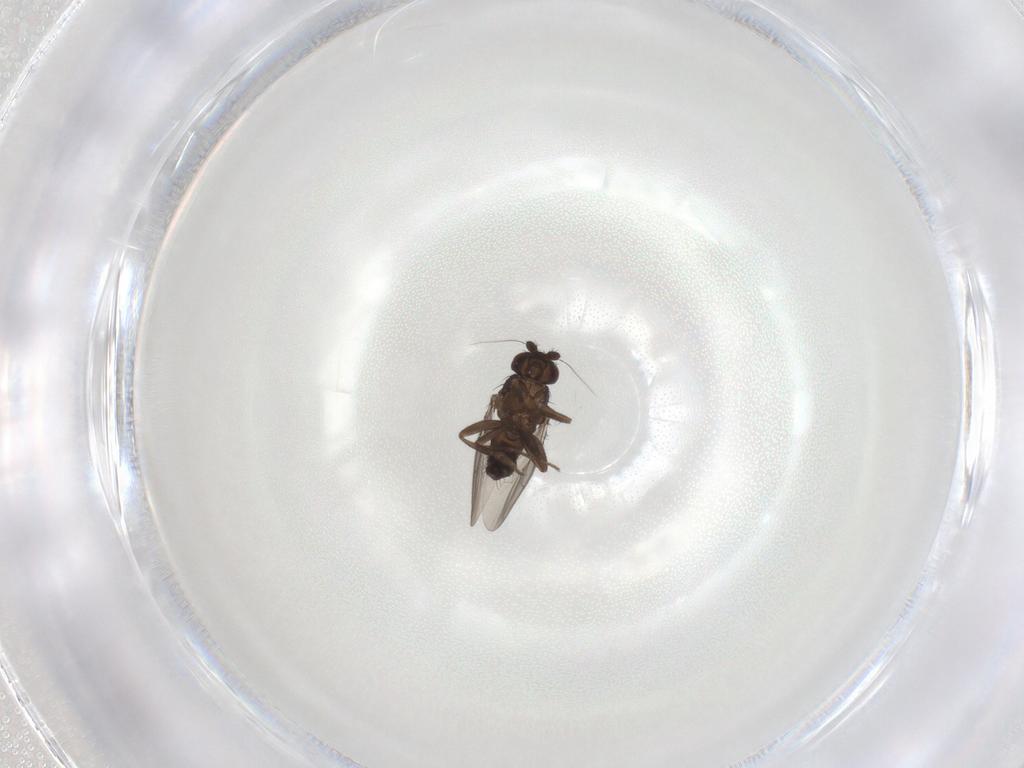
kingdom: Animalia
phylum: Arthropoda
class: Insecta
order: Diptera
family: Sphaeroceridae
